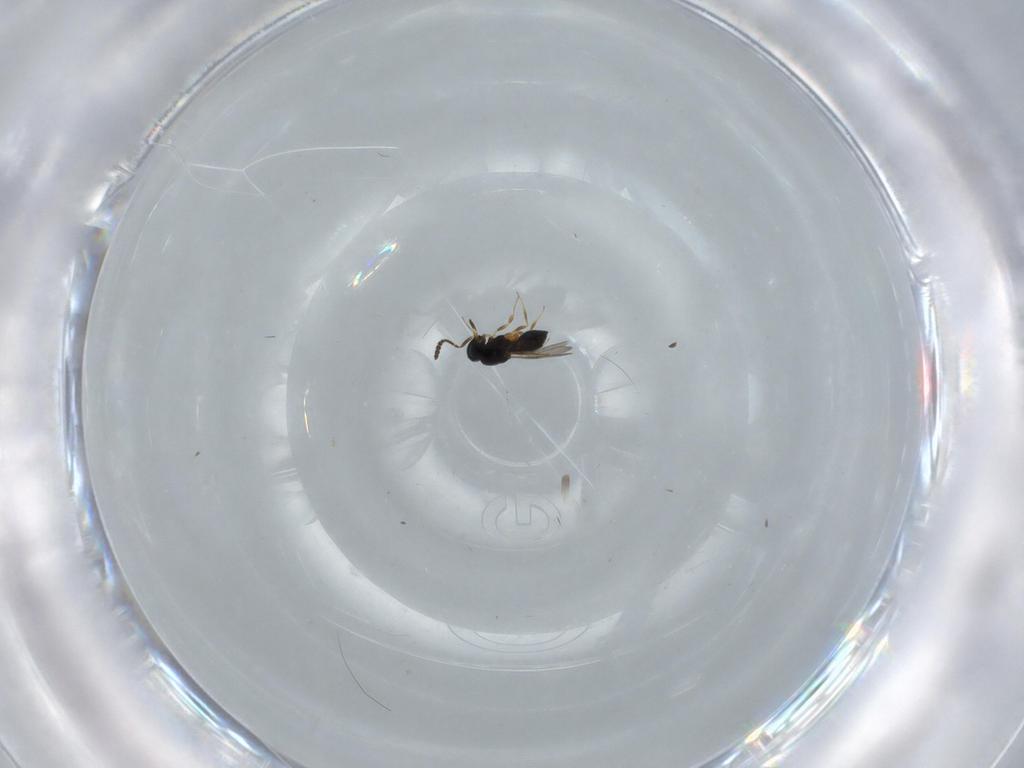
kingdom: Animalia
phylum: Arthropoda
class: Insecta
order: Hymenoptera
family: Scelionidae
